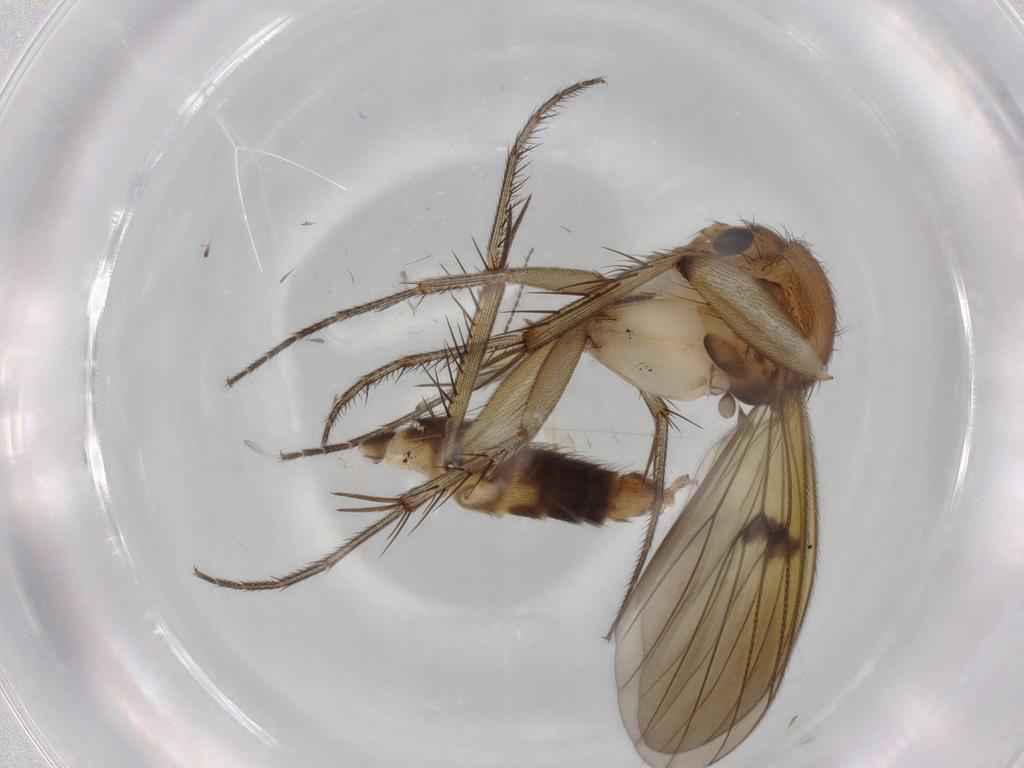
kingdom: Animalia
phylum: Arthropoda
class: Insecta
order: Diptera
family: Mycetophilidae
